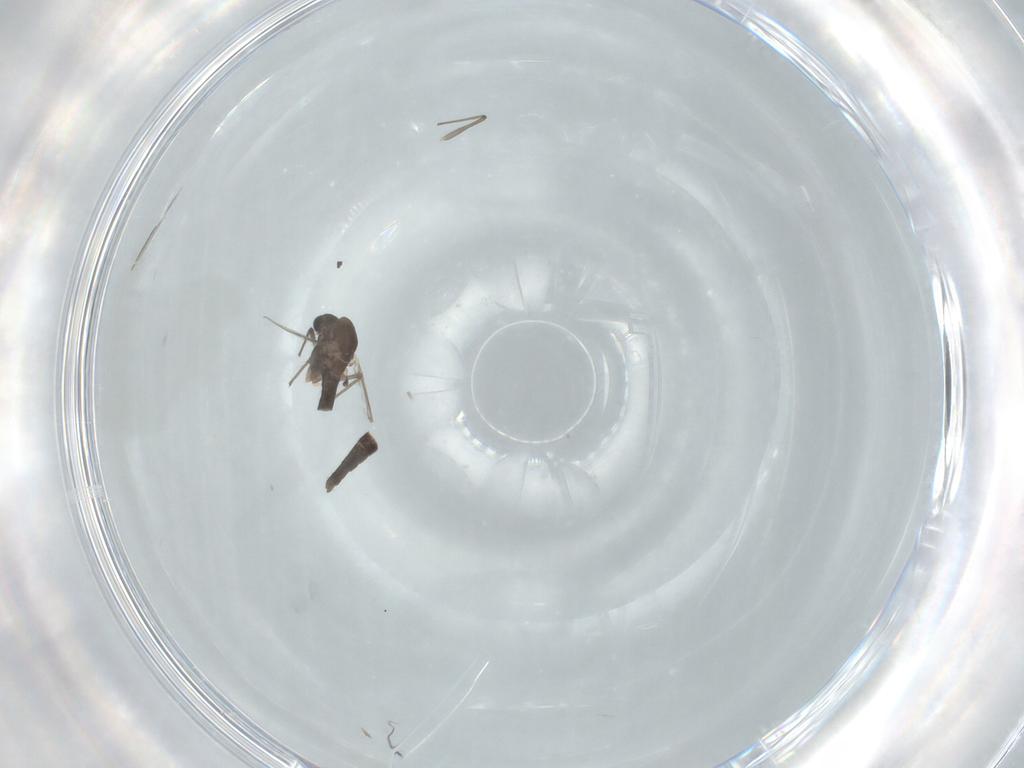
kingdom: Animalia
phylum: Arthropoda
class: Insecta
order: Diptera
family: Chironomidae
